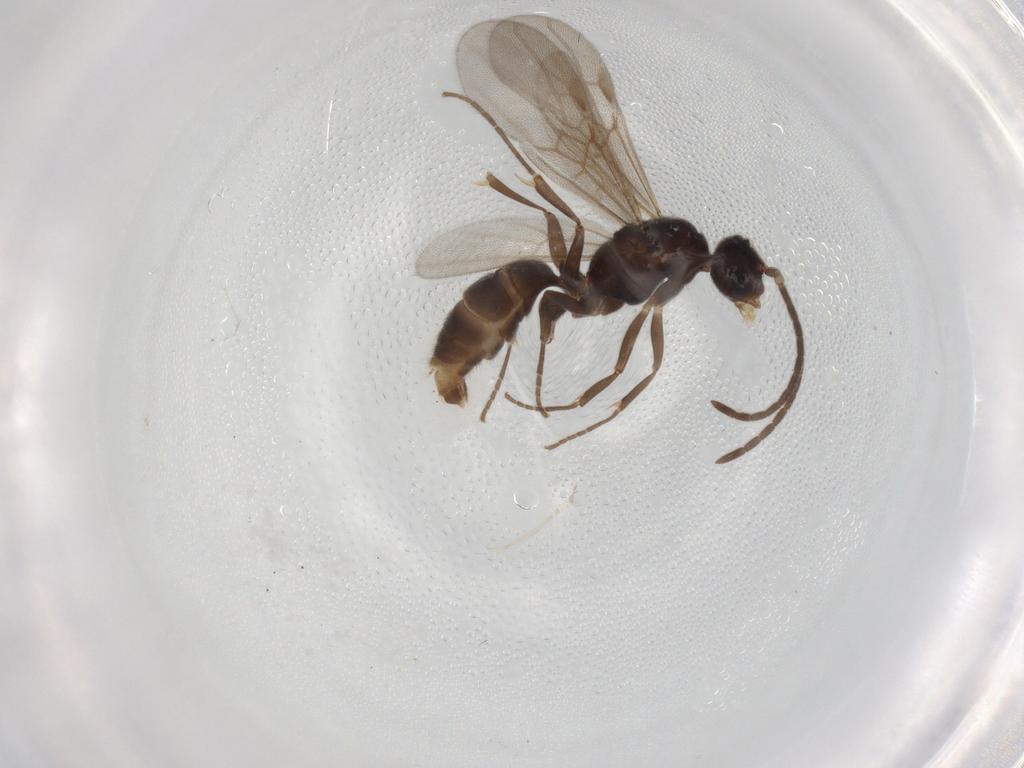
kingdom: Animalia
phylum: Arthropoda
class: Insecta
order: Hymenoptera
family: Formicidae
